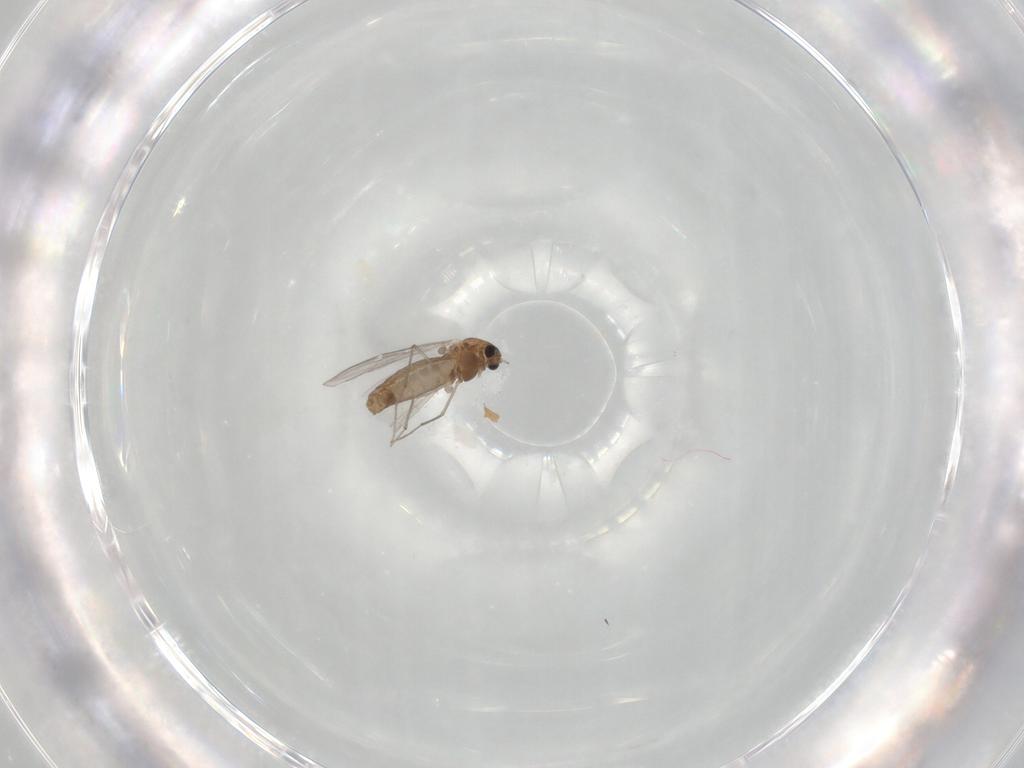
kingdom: Animalia
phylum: Arthropoda
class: Insecta
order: Diptera
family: Chironomidae
